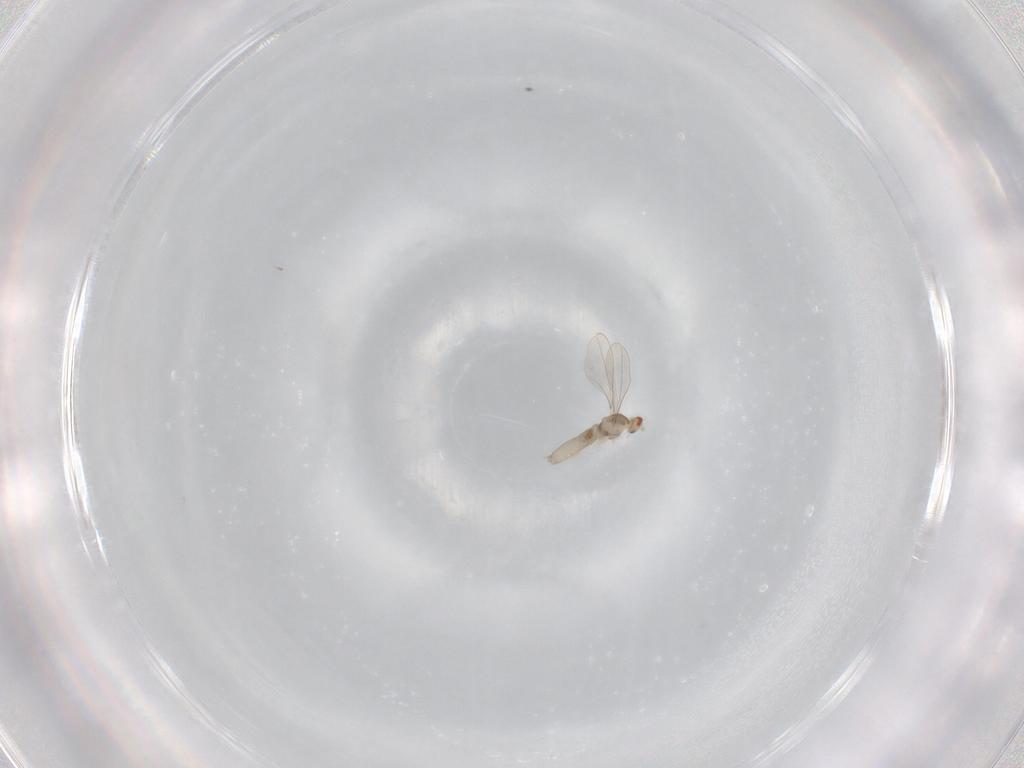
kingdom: Animalia
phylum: Arthropoda
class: Insecta
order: Diptera
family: Cecidomyiidae
